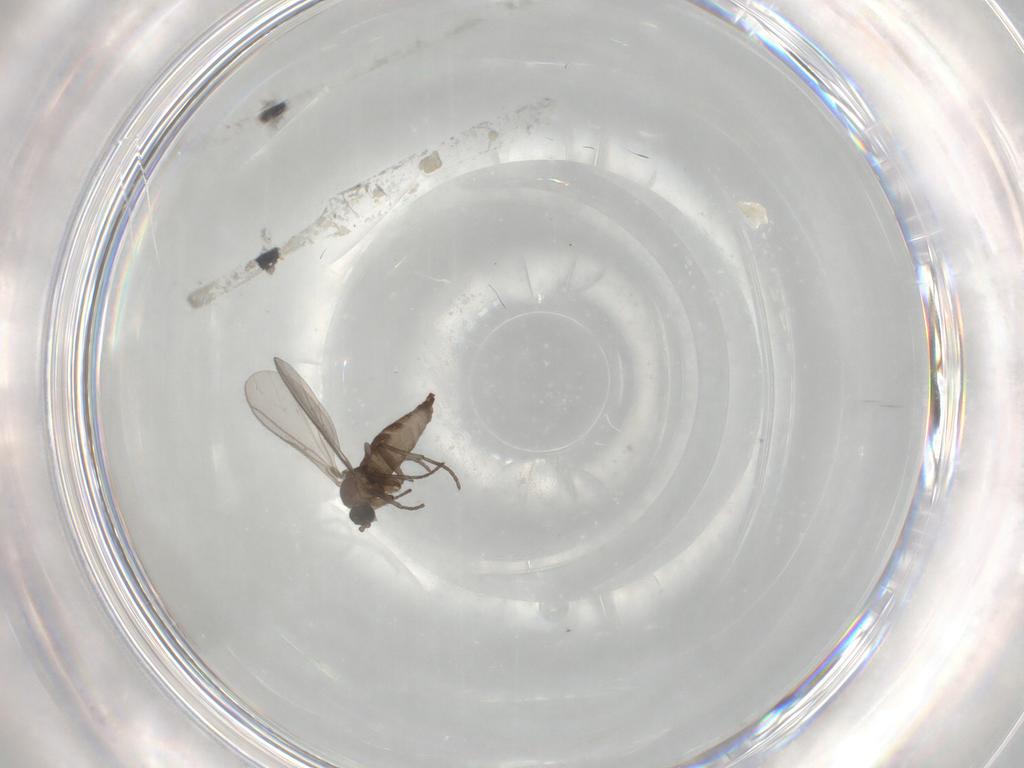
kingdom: Animalia
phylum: Arthropoda
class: Insecta
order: Diptera
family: Sciaridae
